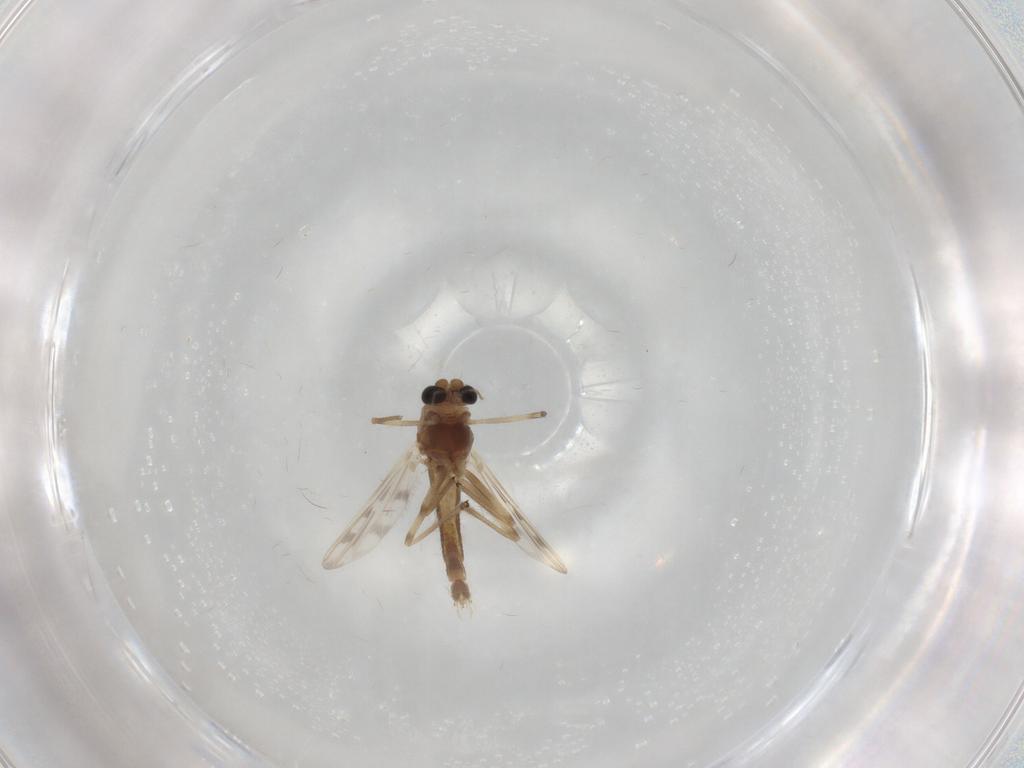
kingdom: Animalia
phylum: Arthropoda
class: Insecta
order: Diptera
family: Chironomidae
